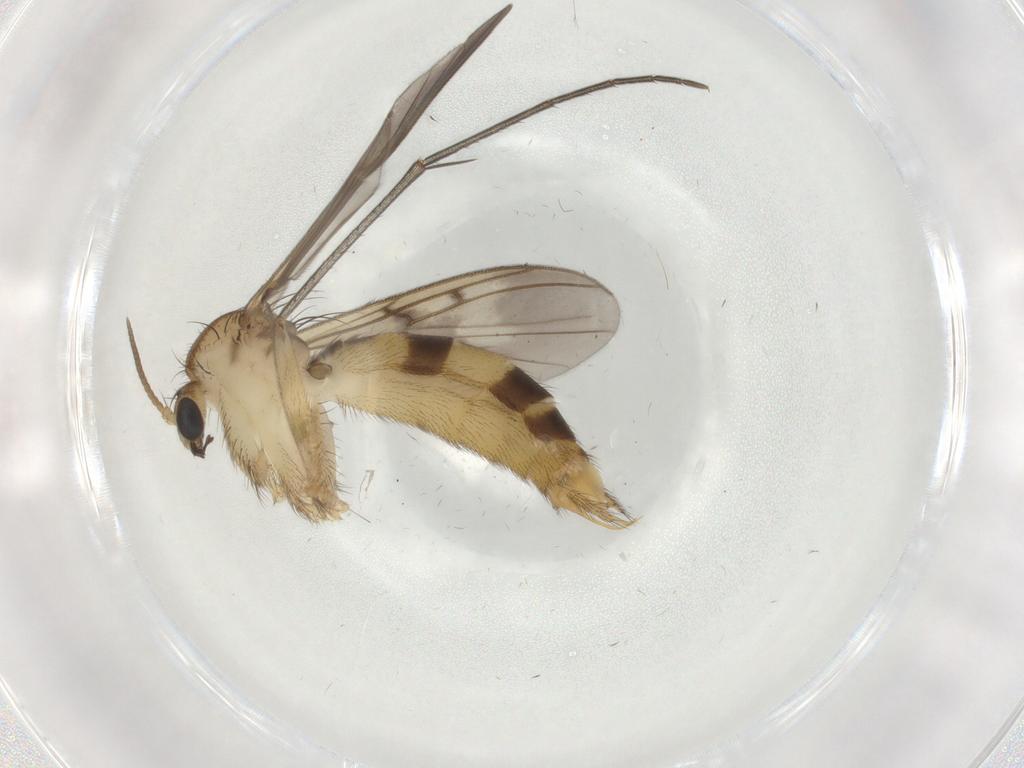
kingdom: Animalia
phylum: Arthropoda
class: Insecta
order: Diptera
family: Cecidomyiidae
